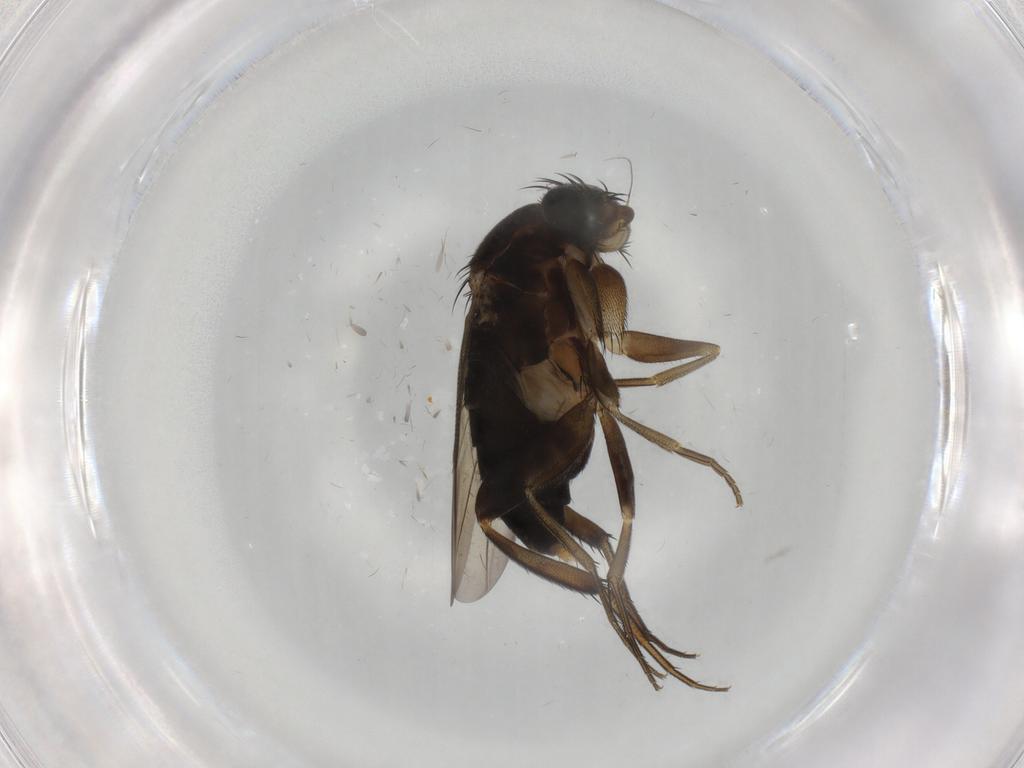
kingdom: Animalia
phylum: Arthropoda
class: Insecta
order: Diptera
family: Phoridae
